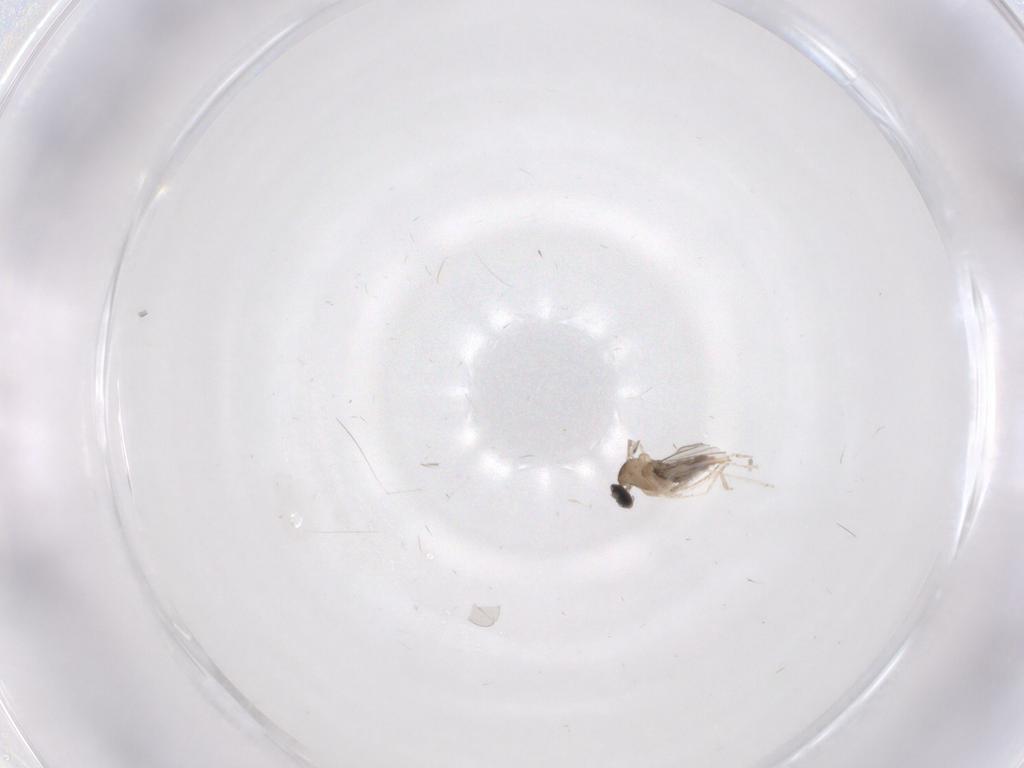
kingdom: Animalia
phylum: Arthropoda
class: Insecta
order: Diptera
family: Cecidomyiidae
